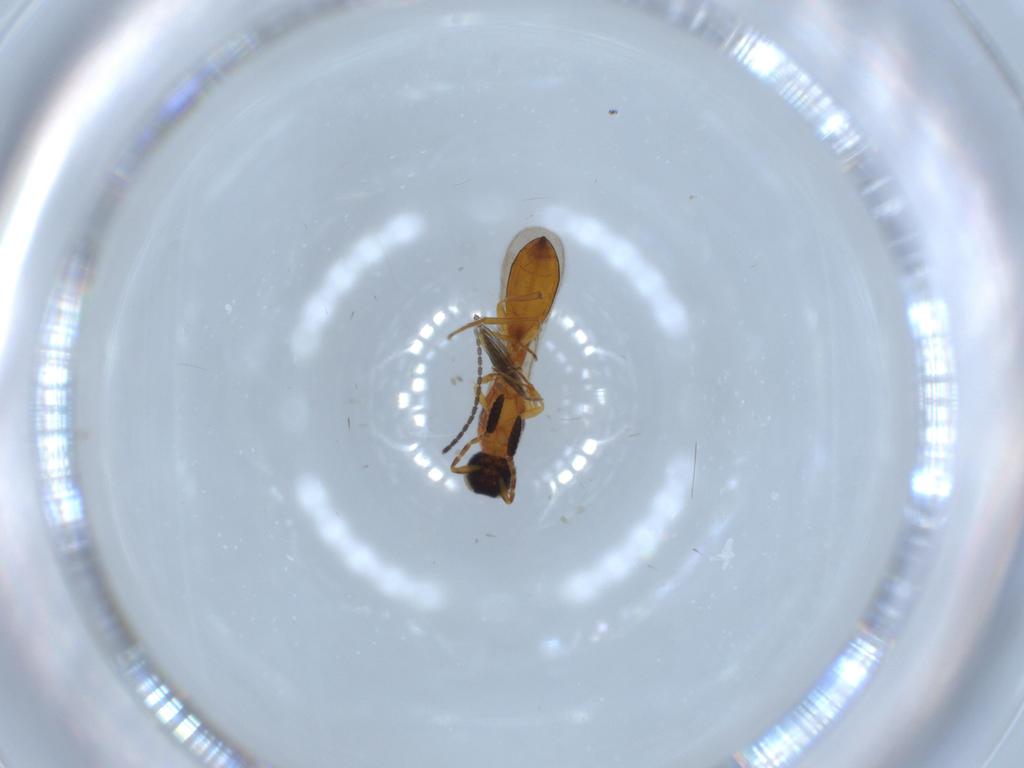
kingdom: Animalia
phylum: Arthropoda
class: Insecta
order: Hymenoptera
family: Scelionidae
